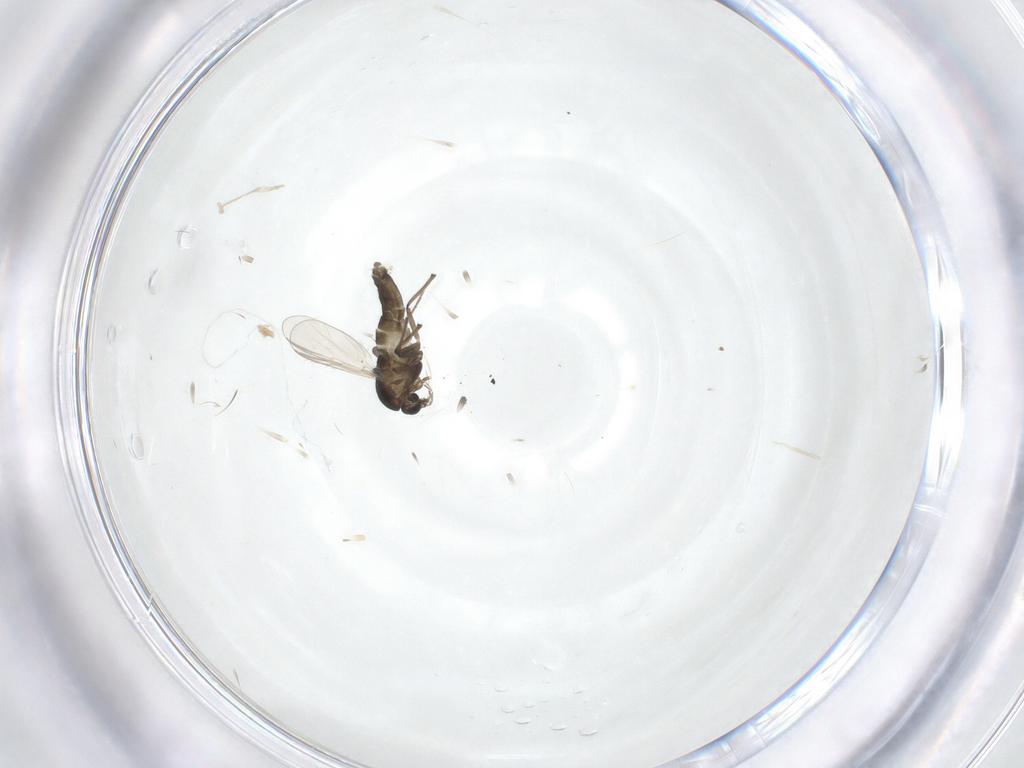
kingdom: Animalia
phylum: Arthropoda
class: Insecta
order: Diptera
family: Chironomidae
